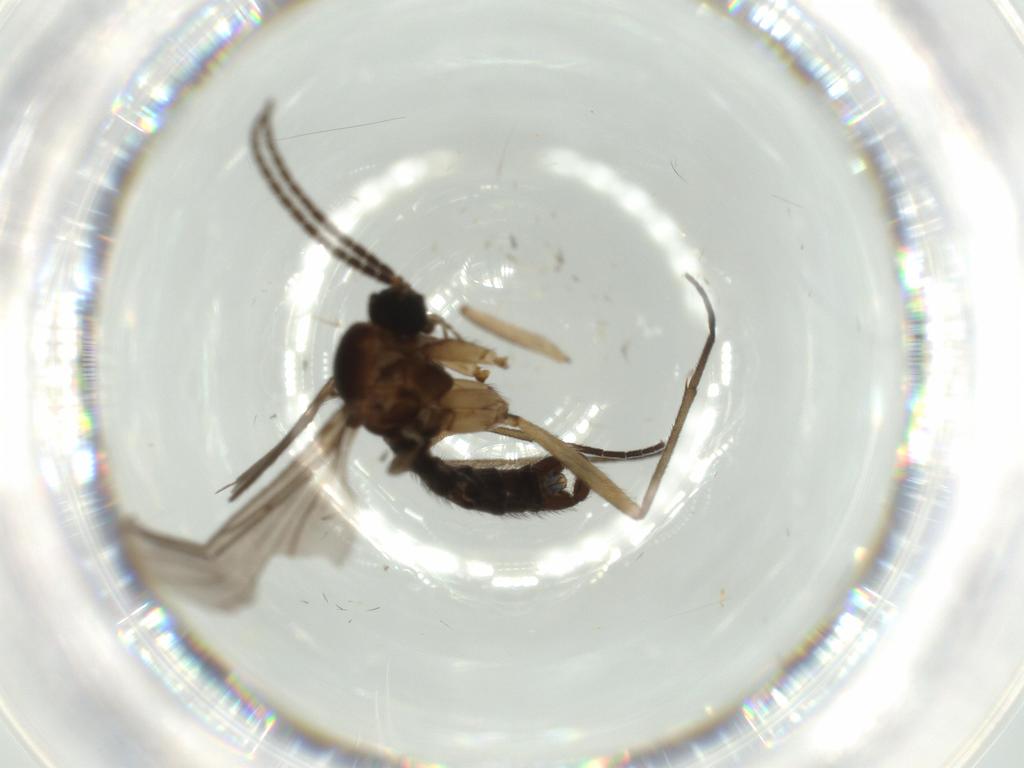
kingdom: Animalia
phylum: Arthropoda
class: Insecta
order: Diptera
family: Sciaridae
